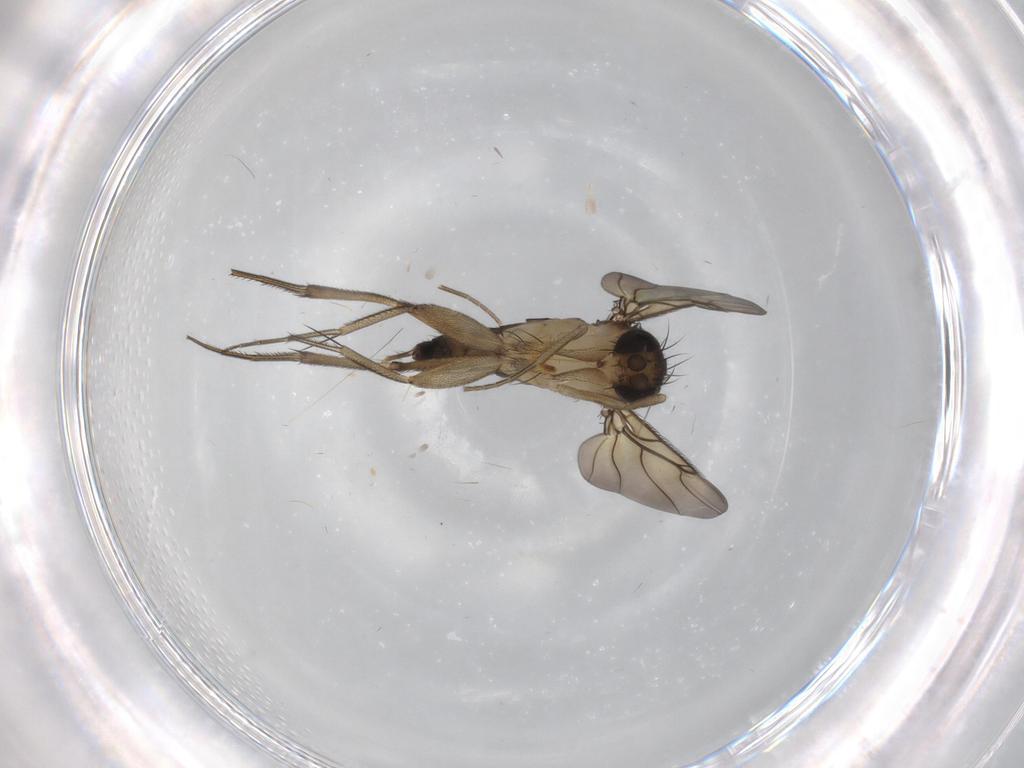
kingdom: Animalia
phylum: Arthropoda
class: Insecta
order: Diptera
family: Phoridae
